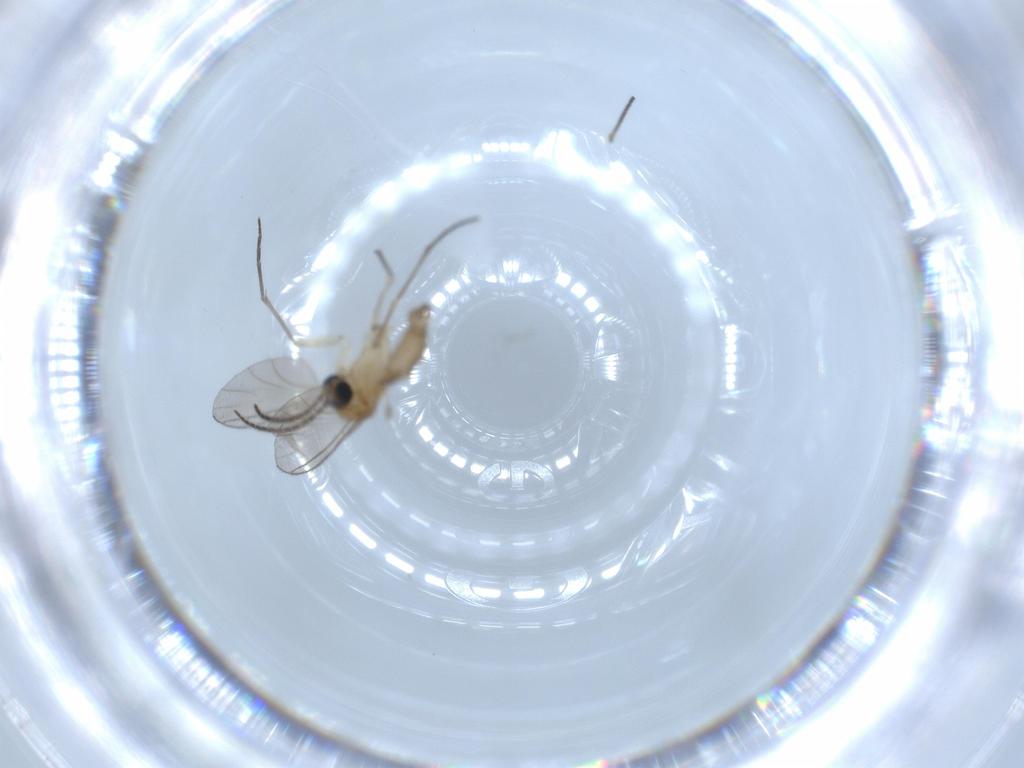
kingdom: Animalia
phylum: Arthropoda
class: Insecta
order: Diptera
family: Sciaridae
